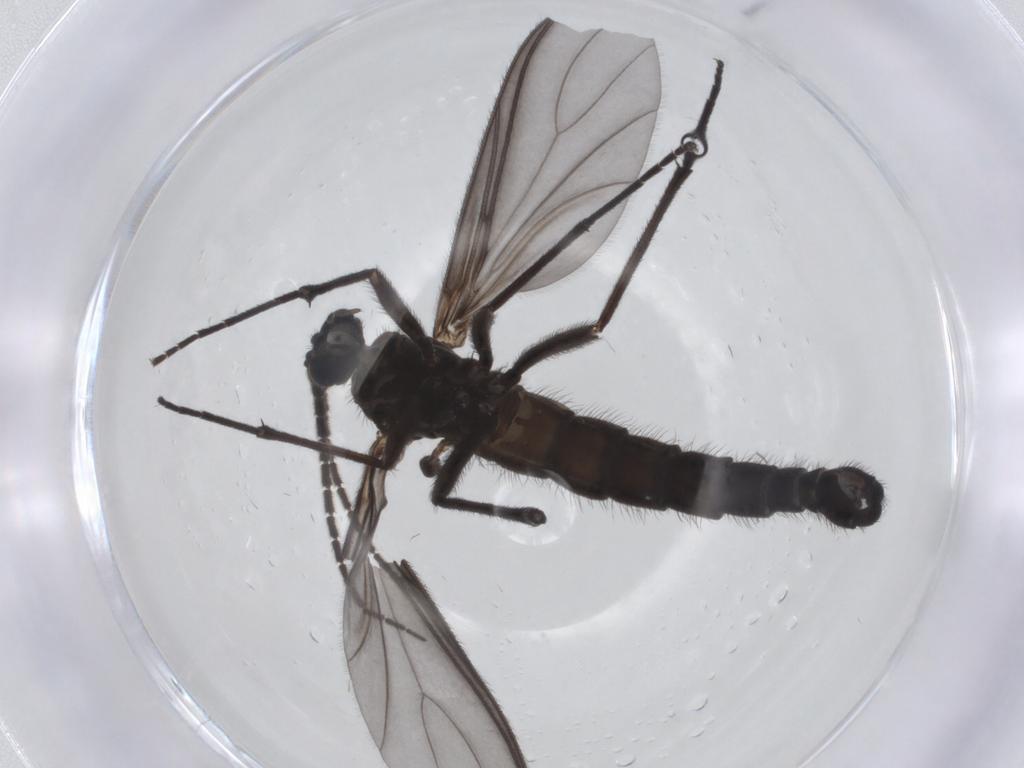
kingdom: Animalia
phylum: Arthropoda
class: Insecta
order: Diptera
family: Chironomidae
